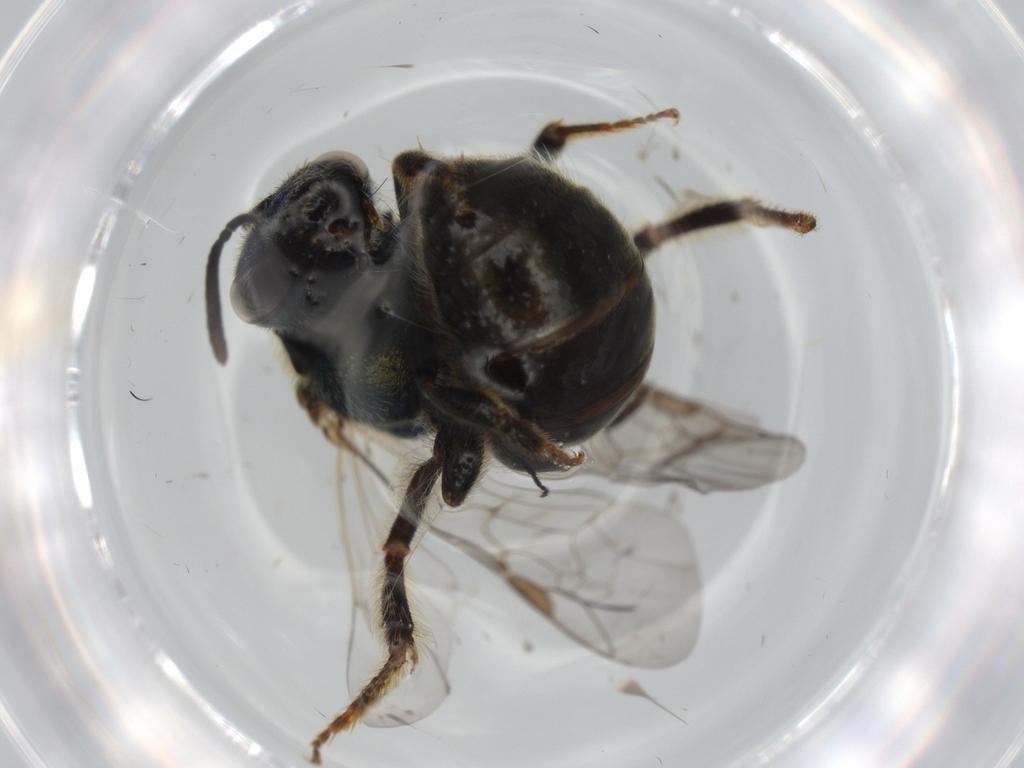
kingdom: Animalia
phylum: Arthropoda
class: Insecta
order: Hymenoptera
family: Halictidae
